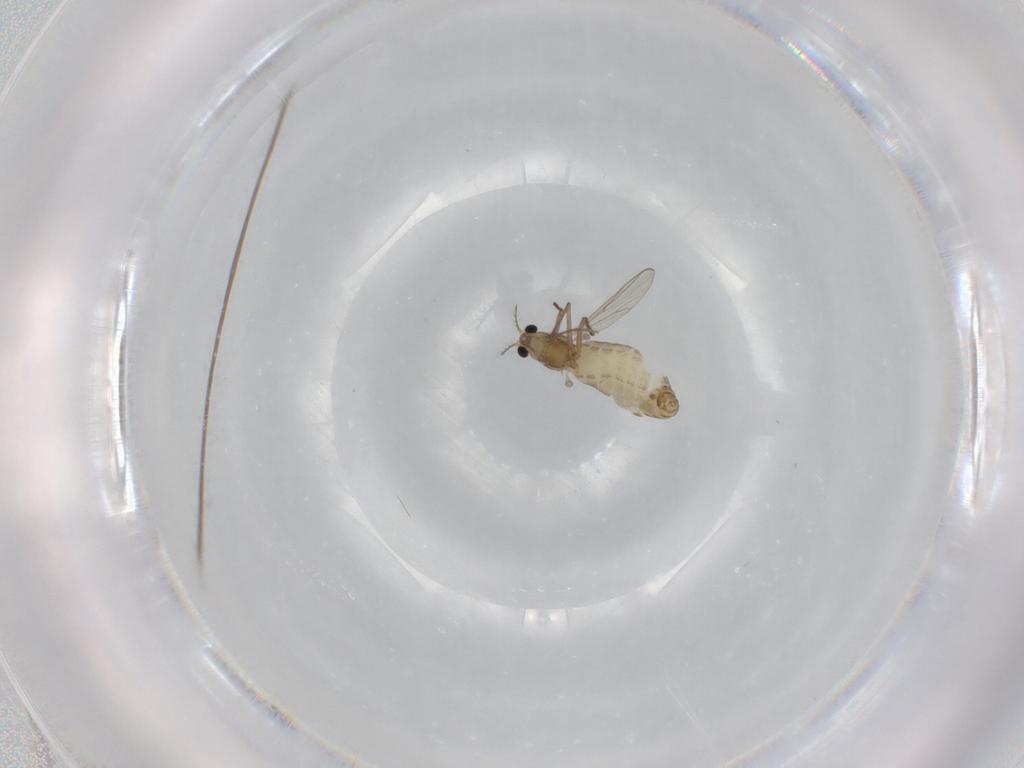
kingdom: Animalia
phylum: Arthropoda
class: Insecta
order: Diptera
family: Chironomidae
